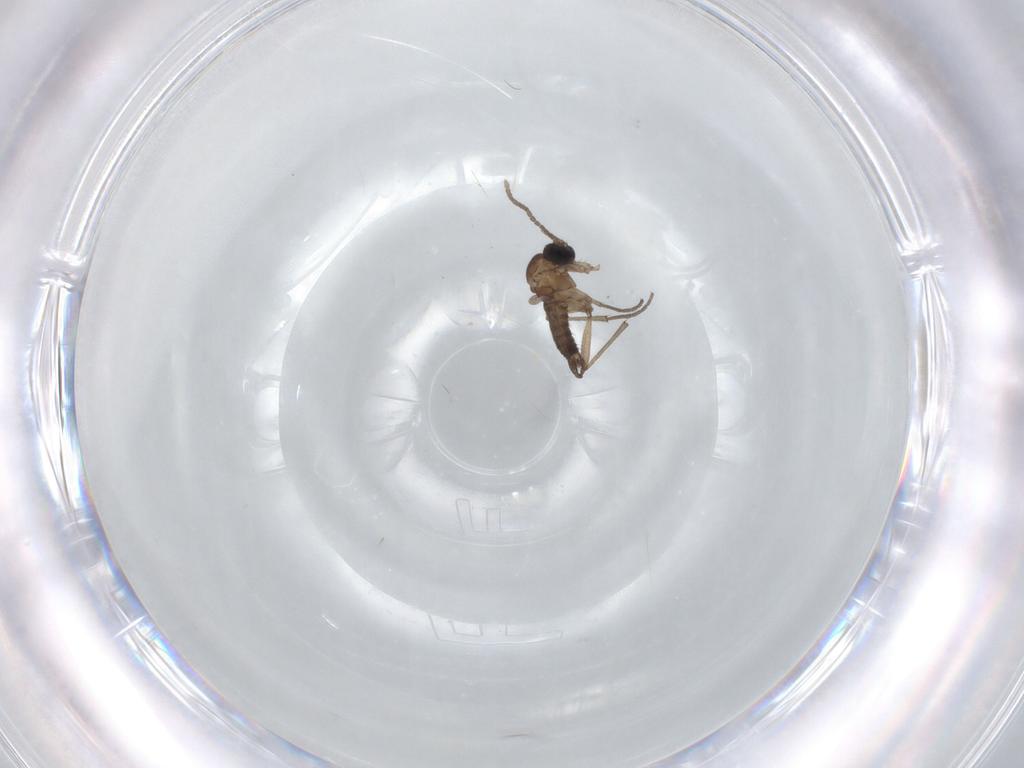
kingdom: Animalia
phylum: Arthropoda
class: Insecta
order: Diptera
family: Sciaridae
